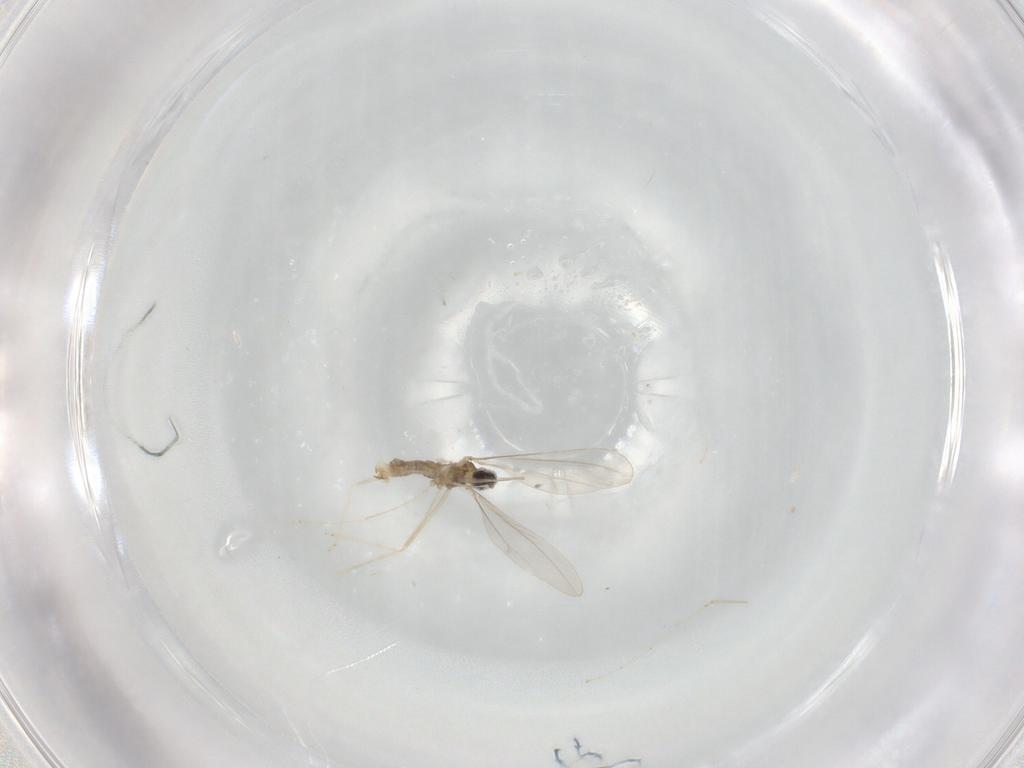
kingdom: Animalia
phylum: Arthropoda
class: Insecta
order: Diptera
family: Cecidomyiidae
